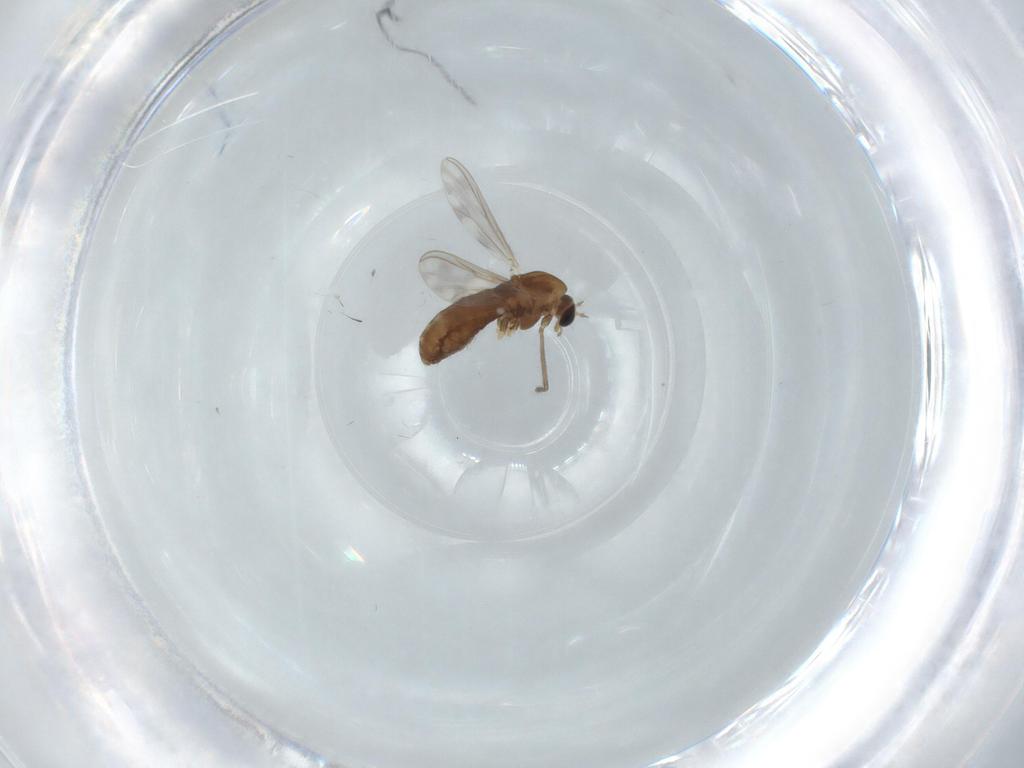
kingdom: Animalia
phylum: Arthropoda
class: Insecta
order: Diptera
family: Chironomidae
